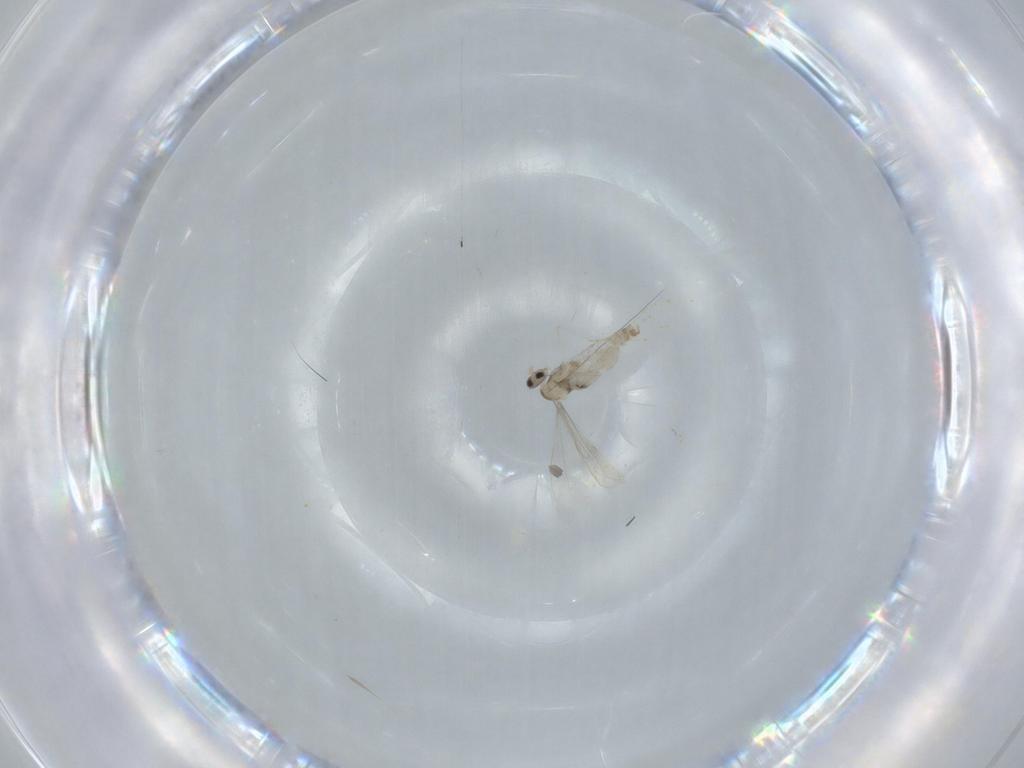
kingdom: Animalia
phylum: Arthropoda
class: Insecta
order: Diptera
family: Cecidomyiidae
